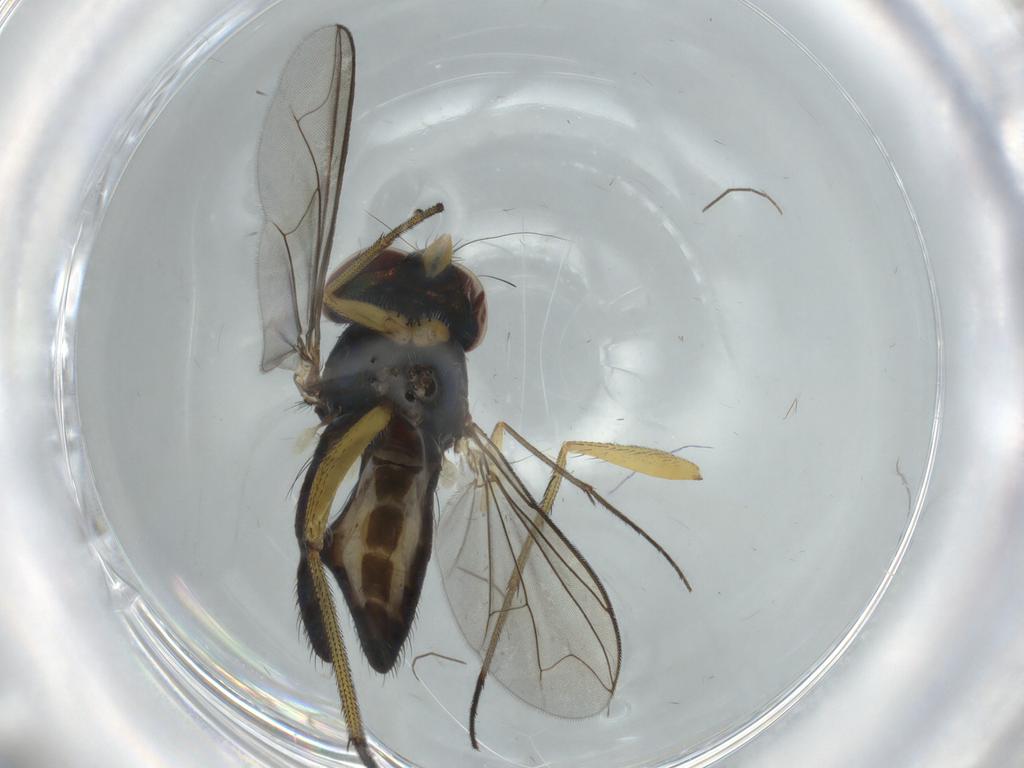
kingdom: Animalia
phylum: Arthropoda
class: Insecta
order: Diptera
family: Dolichopodidae
